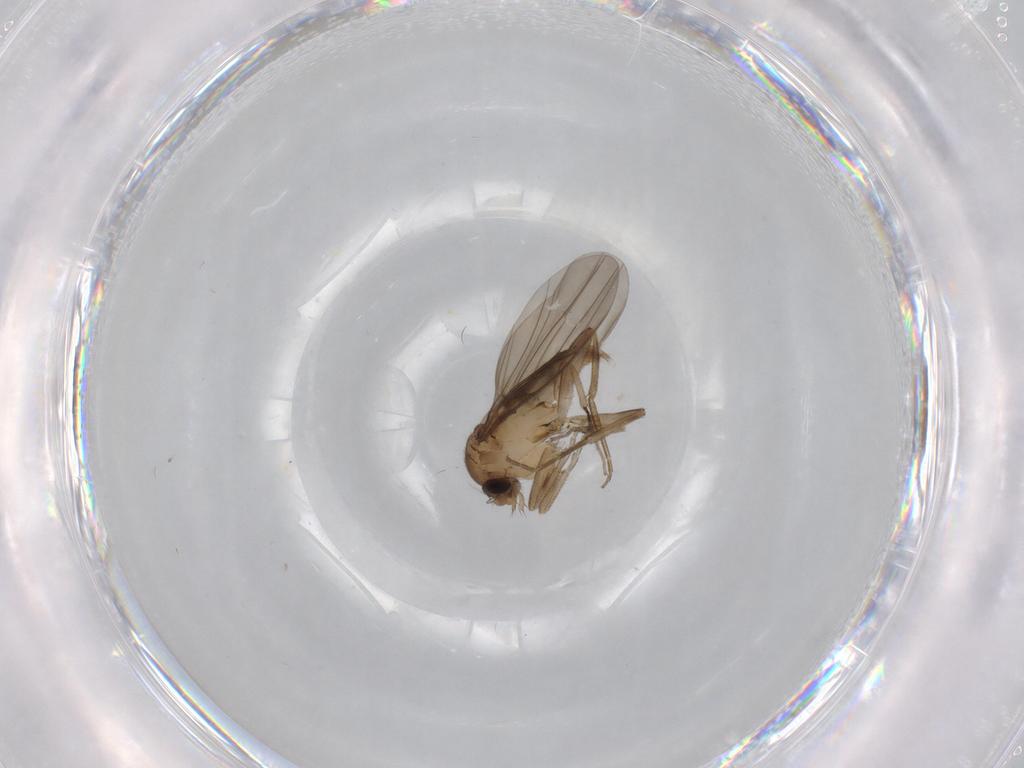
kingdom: Animalia
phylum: Arthropoda
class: Insecta
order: Diptera
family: Phoridae
